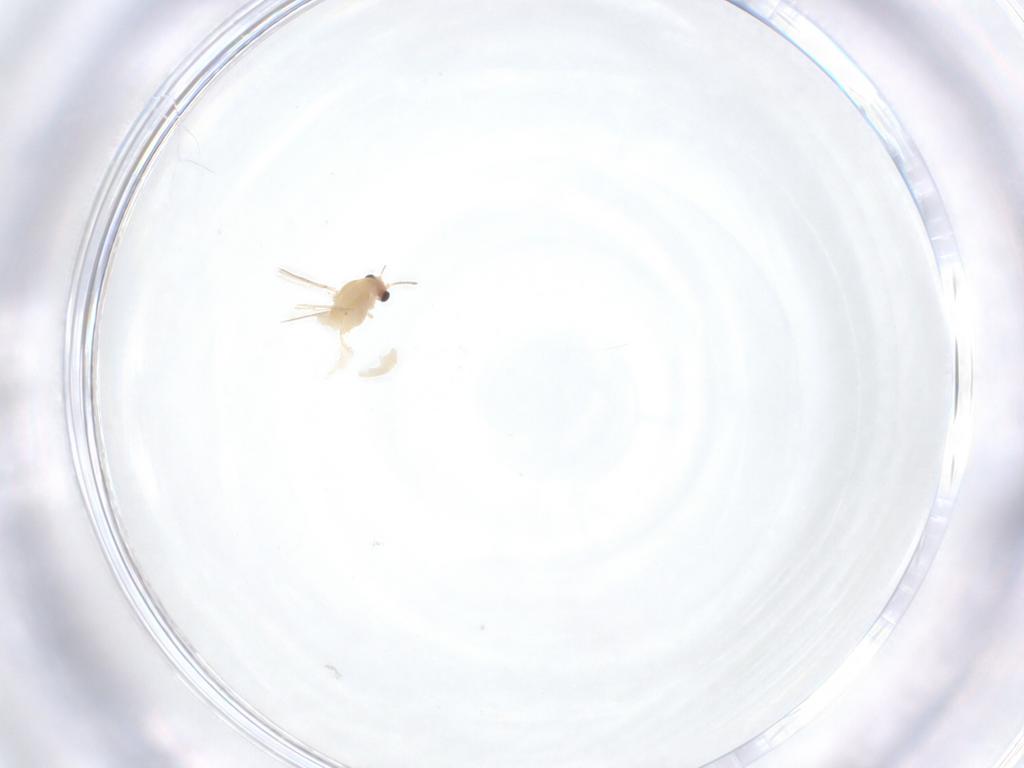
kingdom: Animalia
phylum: Arthropoda
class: Insecta
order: Diptera
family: Chironomidae
